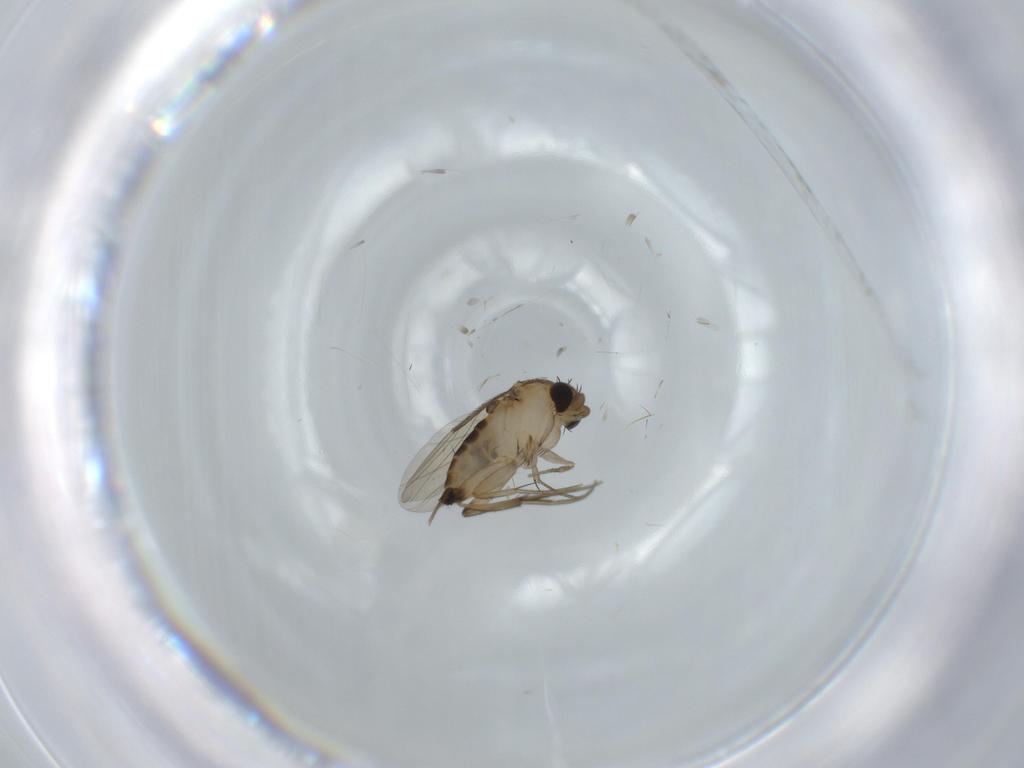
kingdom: Animalia
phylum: Arthropoda
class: Insecta
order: Diptera
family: Phoridae
